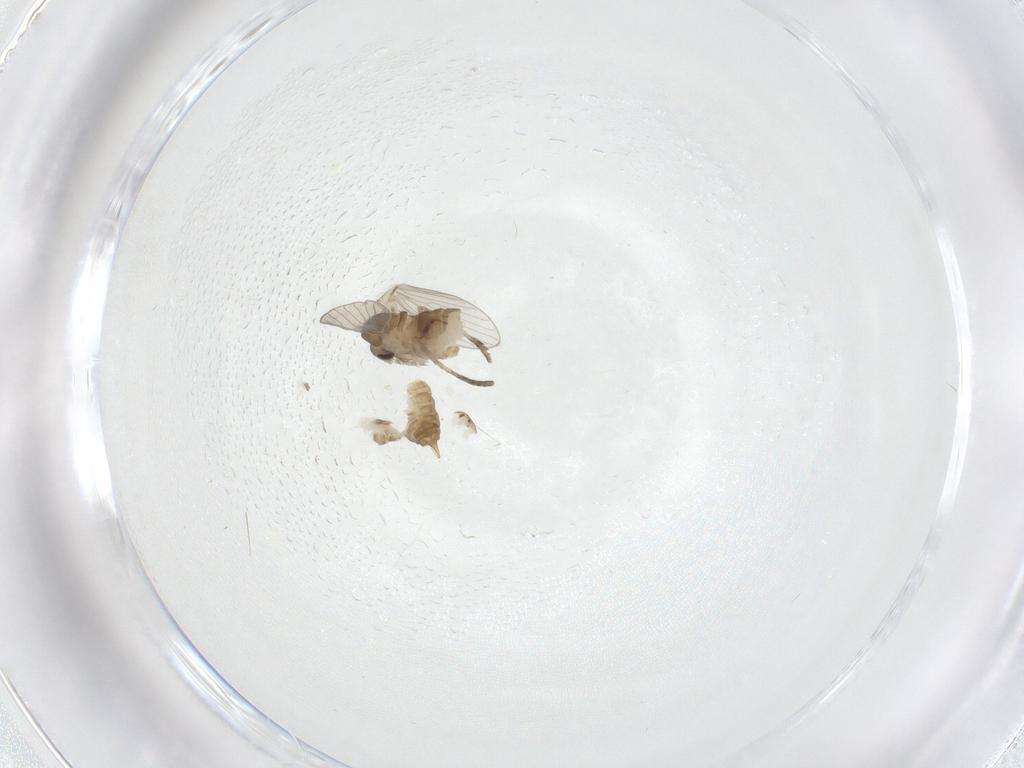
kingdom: Animalia
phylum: Arthropoda
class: Insecta
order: Diptera
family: Psychodidae
